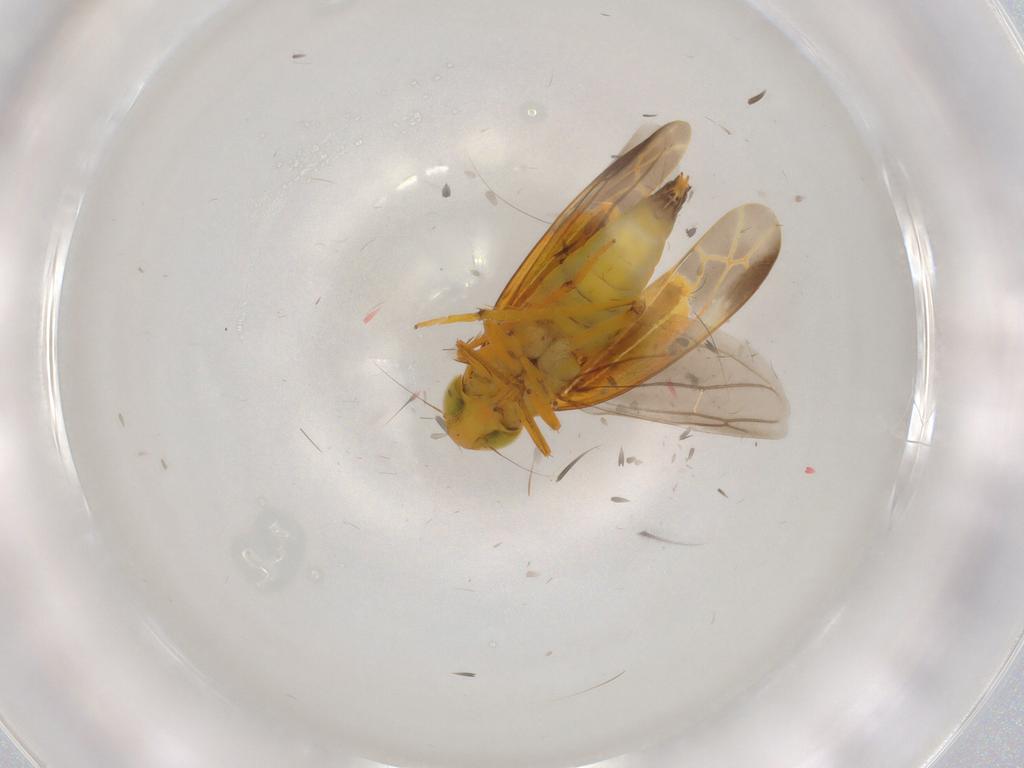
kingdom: Animalia
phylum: Arthropoda
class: Insecta
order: Hemiptera
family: Cicadellidae
